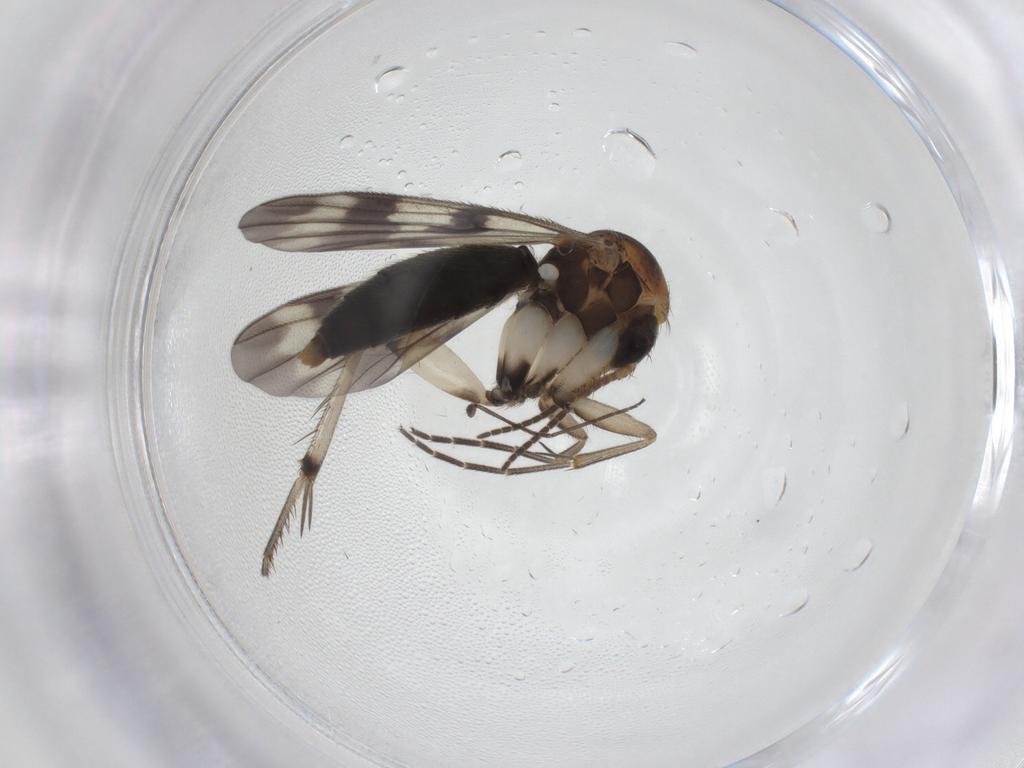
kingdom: Animalia
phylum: Arthropoda
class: Insecta
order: Diptera
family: Mycetophilidae
